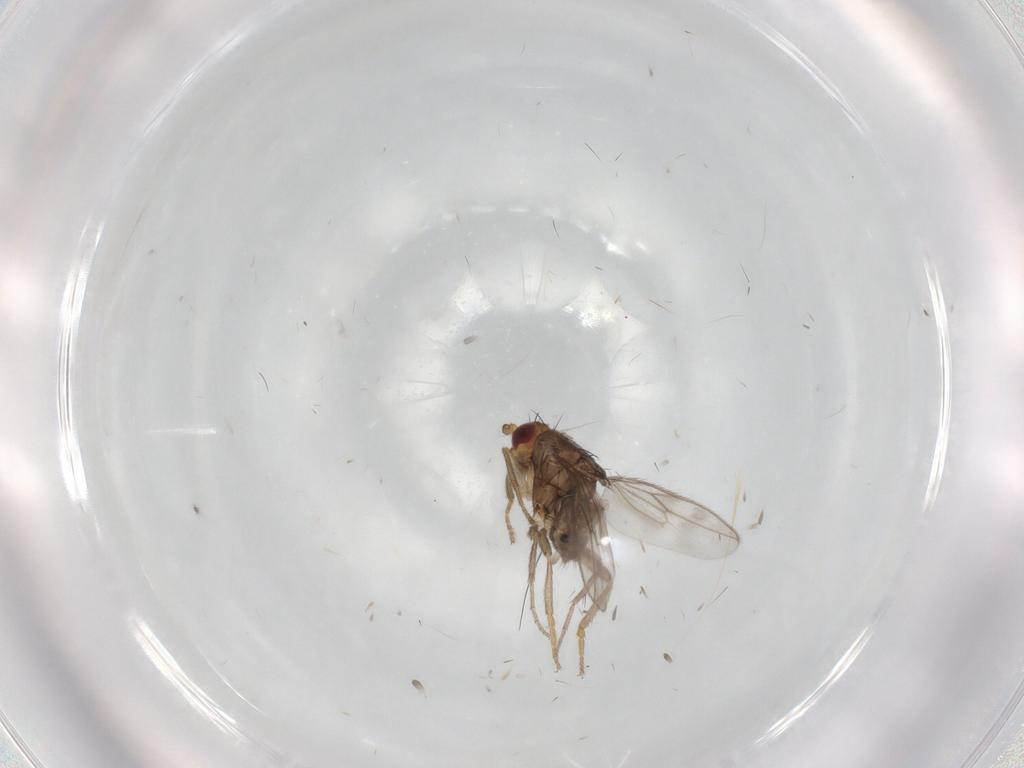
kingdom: Animalia
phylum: Arthropoda
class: Insecta
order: Diptera
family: Sphaeroceridae
